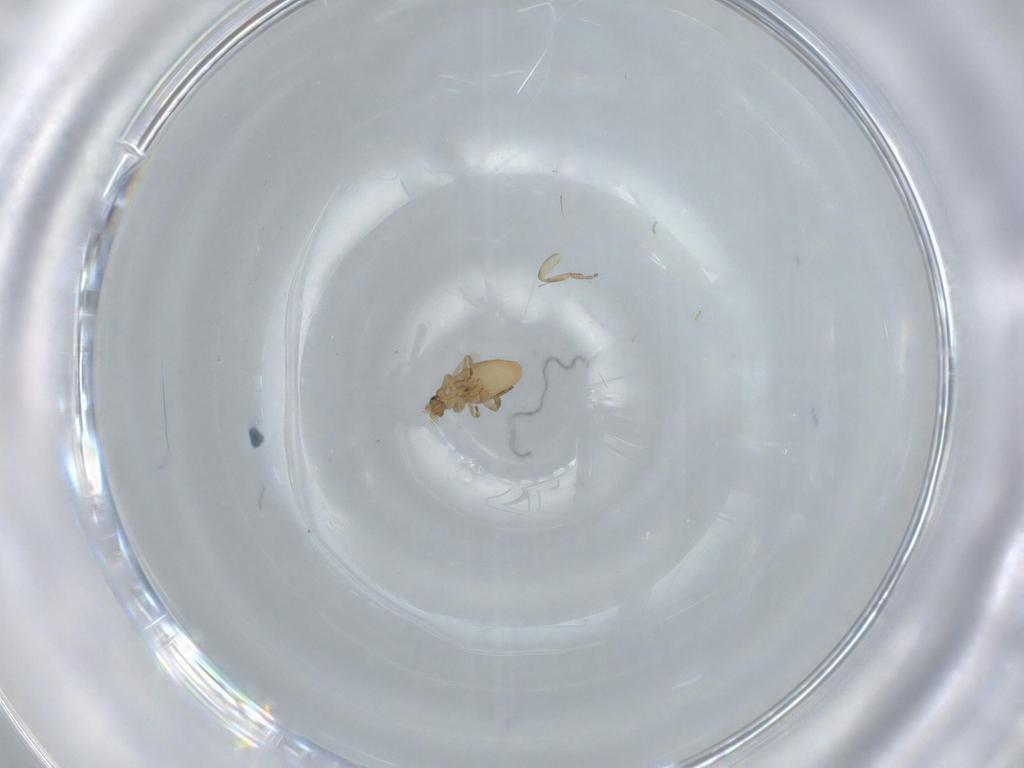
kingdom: Animalia
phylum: Arthropoda
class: Insecta
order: Diptera
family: Phoridae
